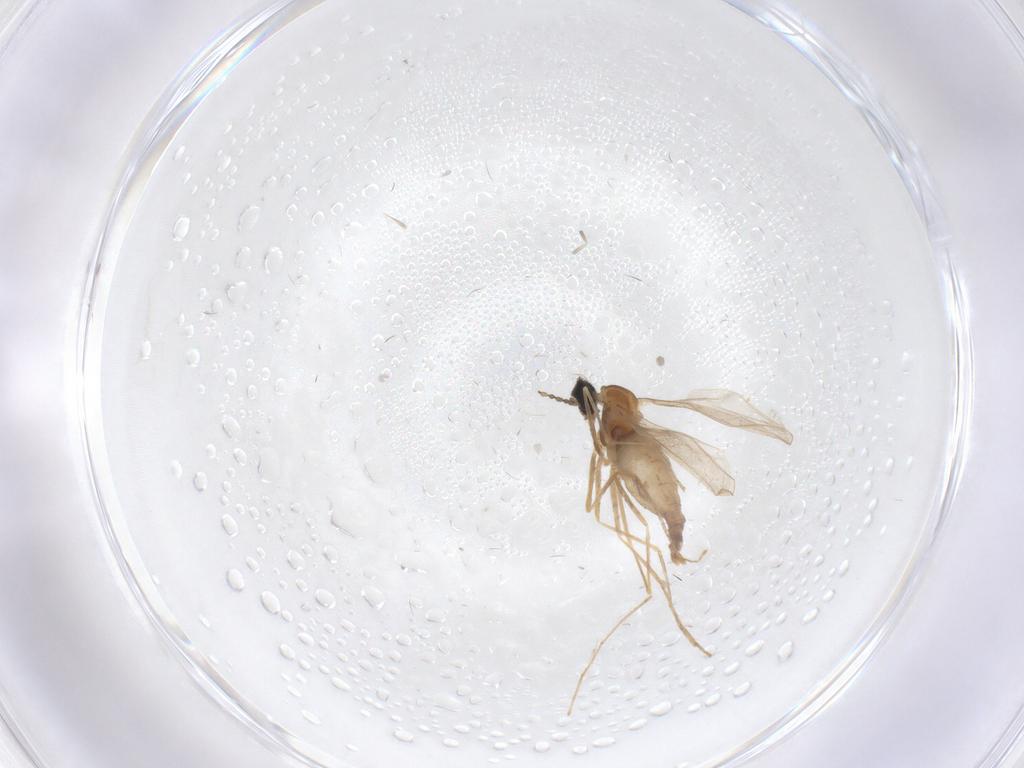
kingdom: Animalia
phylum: Arthropoda
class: Insecta
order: Diptera
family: Cecidomyiidae
